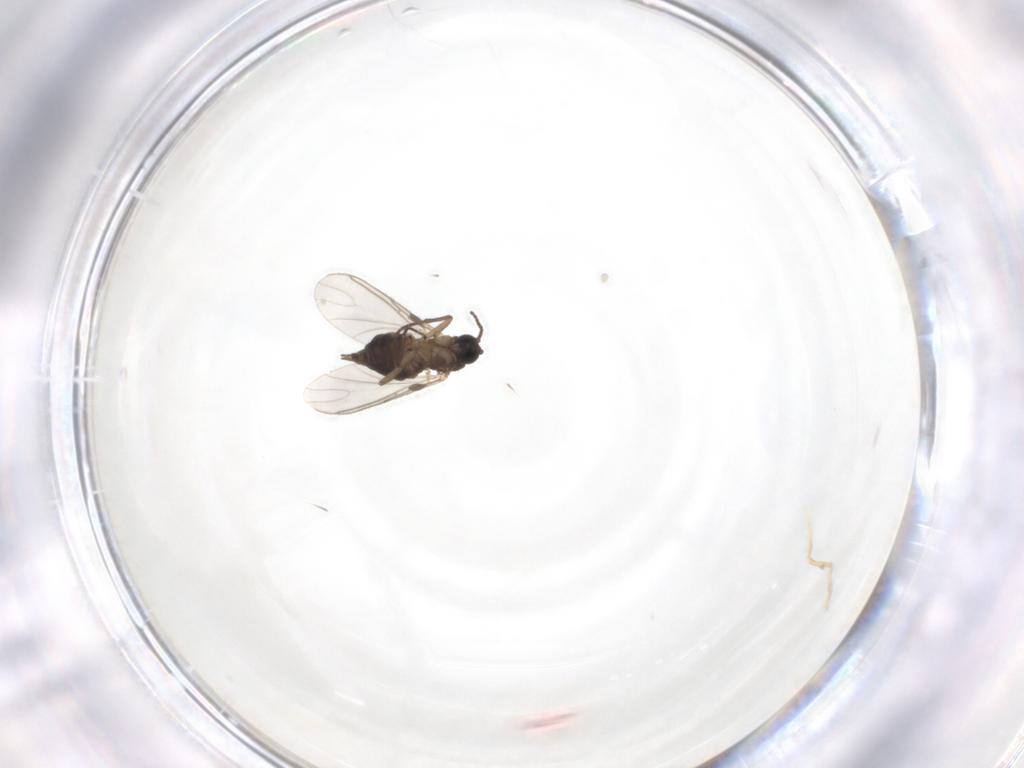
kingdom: Animalia
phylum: Arthropoda
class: Insecta
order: Diptera
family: Sciaridae
